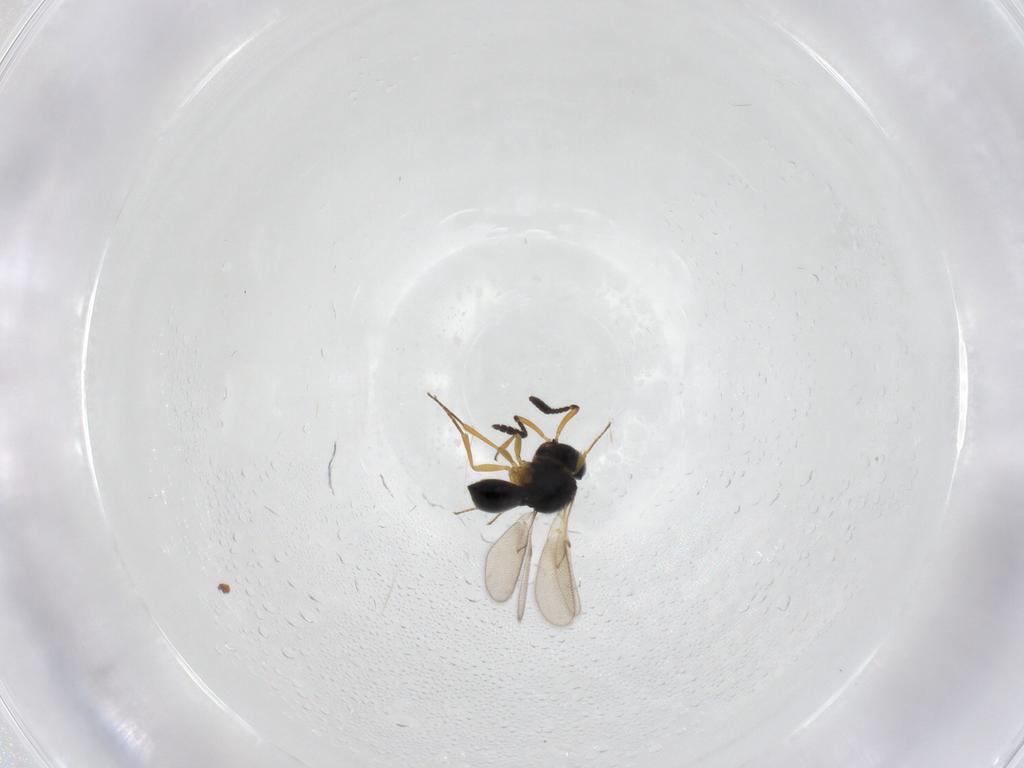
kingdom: Animalia
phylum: Arthropoda
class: Insecta
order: Hymenoptera
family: Scelionidae
